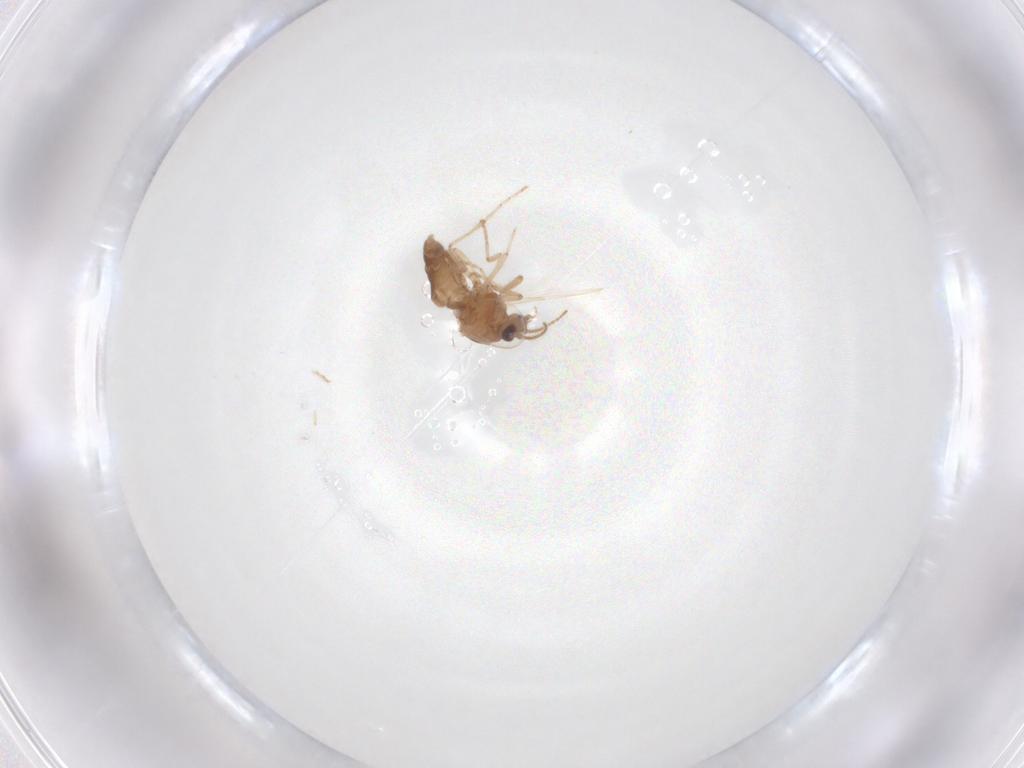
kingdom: Animalia
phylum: Arthropoda
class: Insecta
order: Diptera
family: Ceratopogonidae
